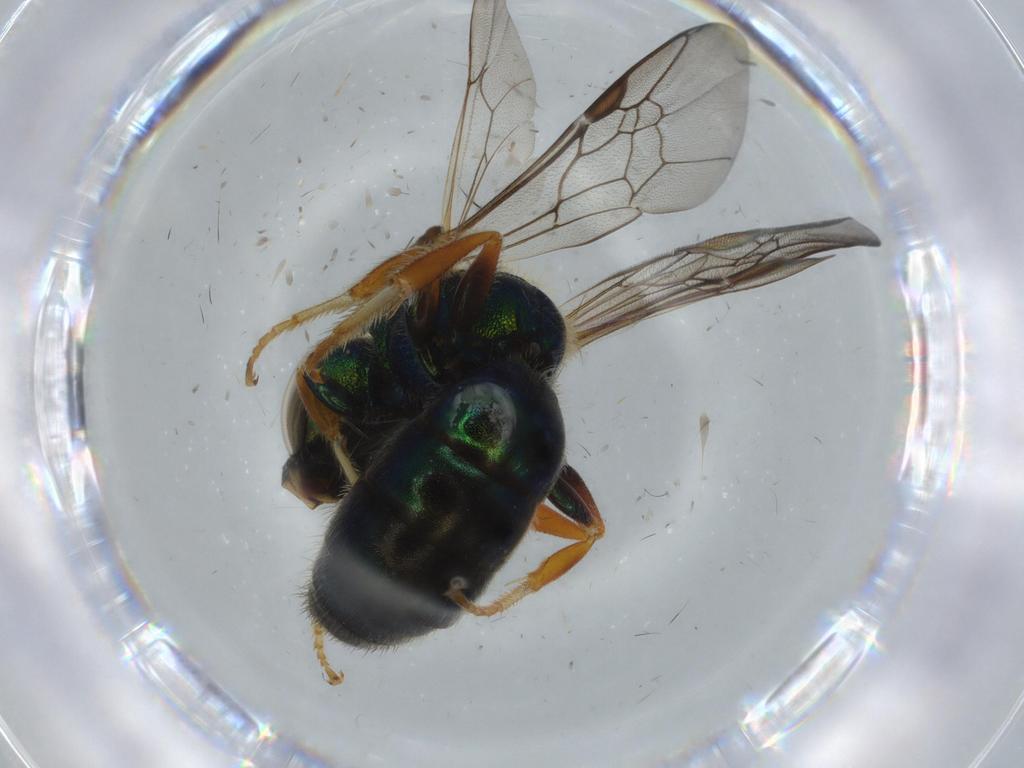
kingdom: Animalia
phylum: Arthropoda
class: Insecta
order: Hymenoptera
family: Halictidae
